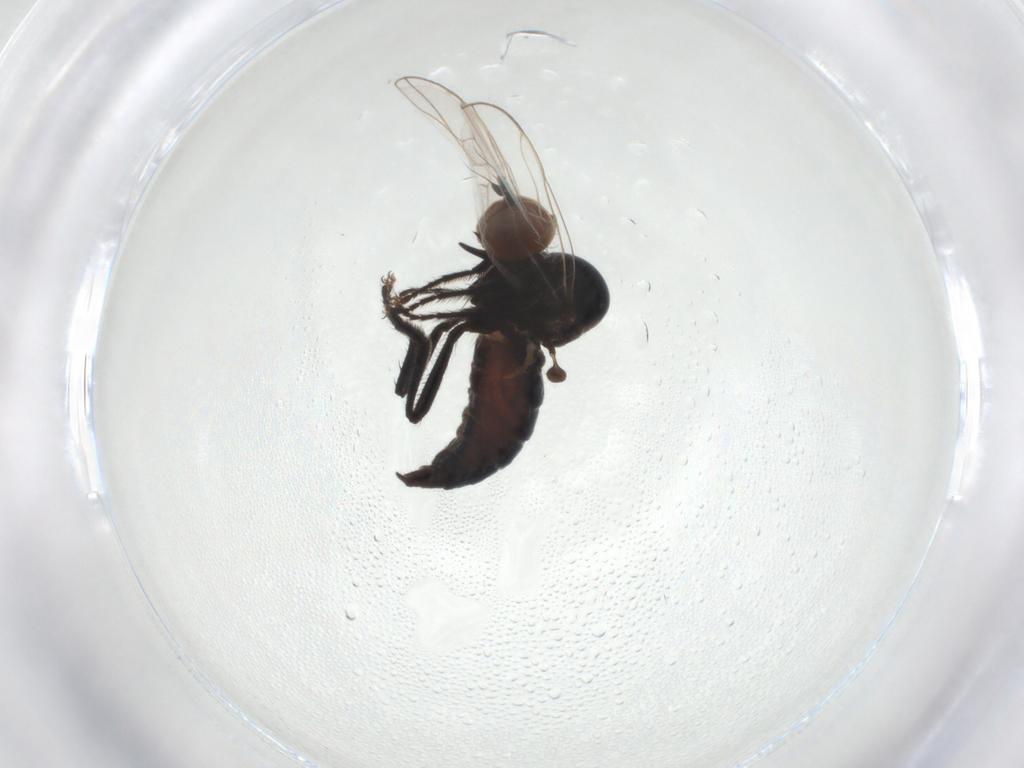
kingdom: Animalia
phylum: Arthropoda
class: Insecta
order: Diptera
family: Hybotidae
